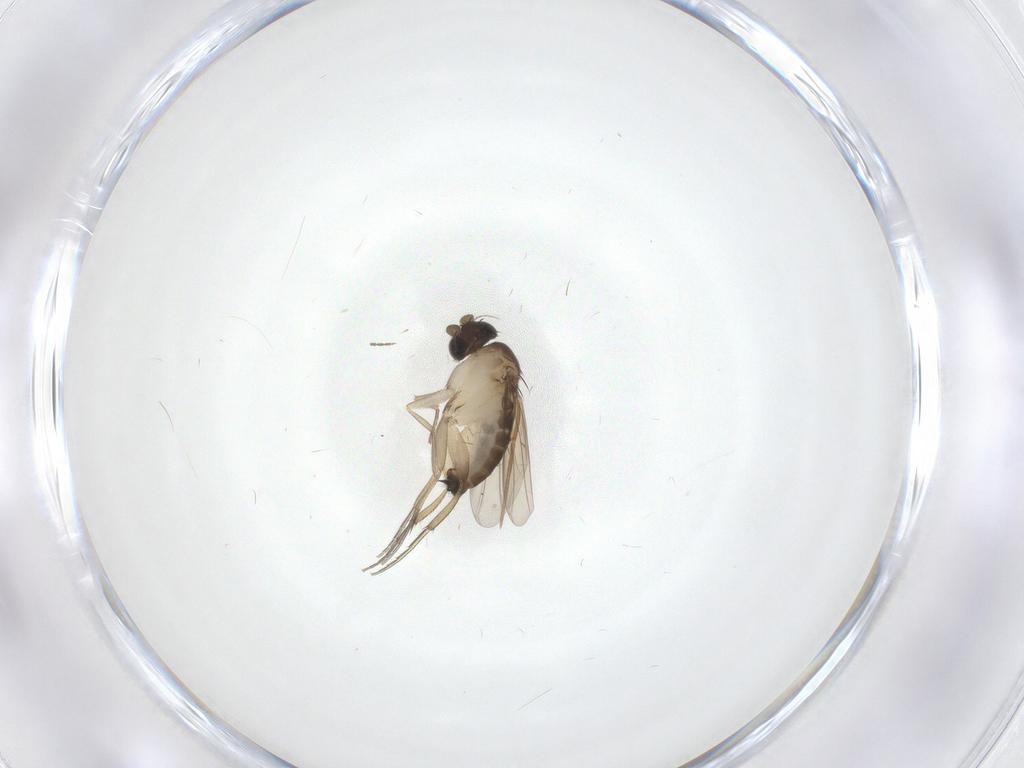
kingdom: Animalia
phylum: Arthropoda
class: Insecta
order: Diptera
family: Phoridae
